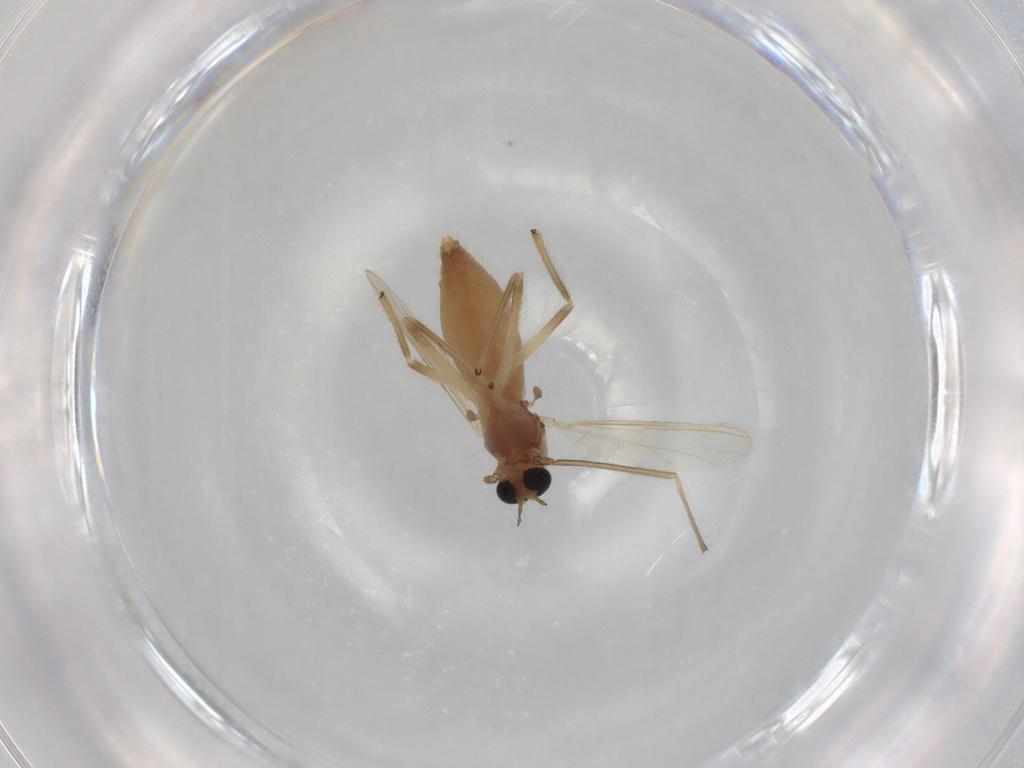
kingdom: Animalia
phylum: Arthropoda
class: Insecta
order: Diptera
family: Chironomidae
